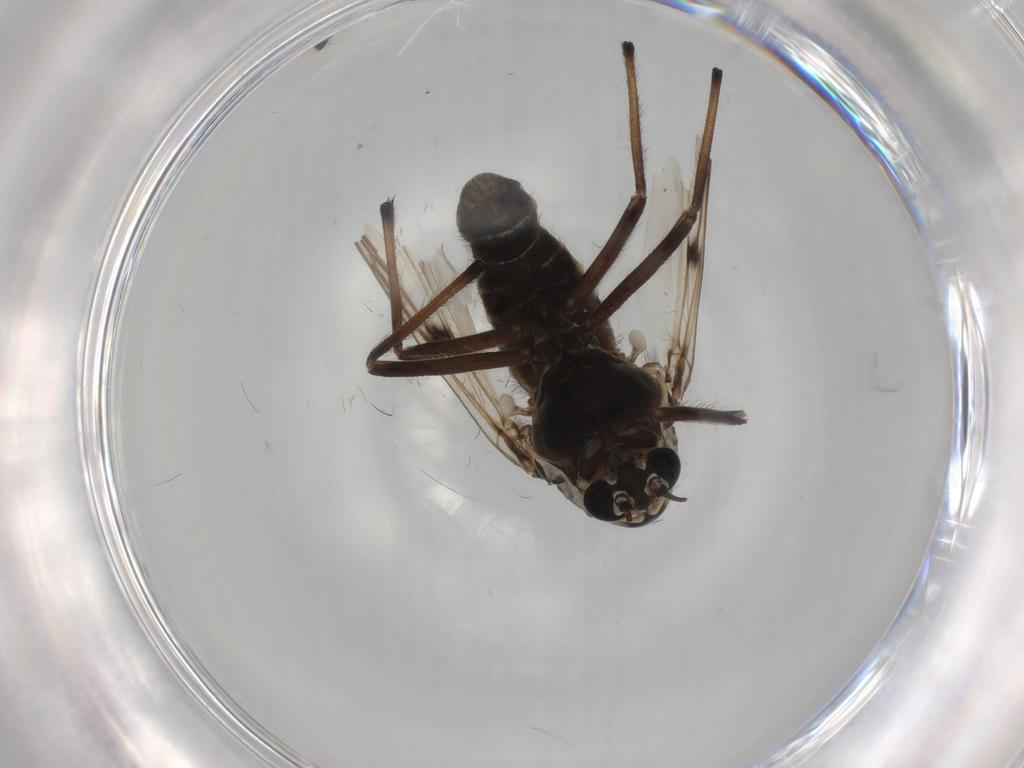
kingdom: Animalia
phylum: Arthropoda
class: Insecta
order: Diptera
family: Chironomidae
